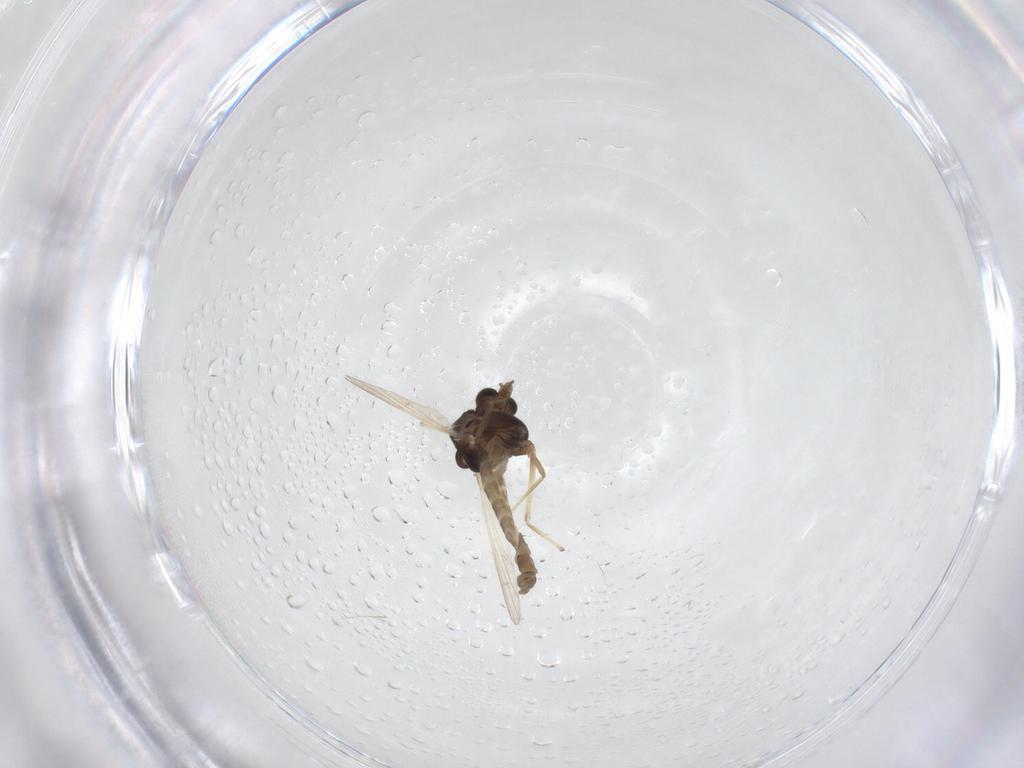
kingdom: Animalia
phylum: Arthropoda
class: Insecta
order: Diptera
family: Chironomidae
